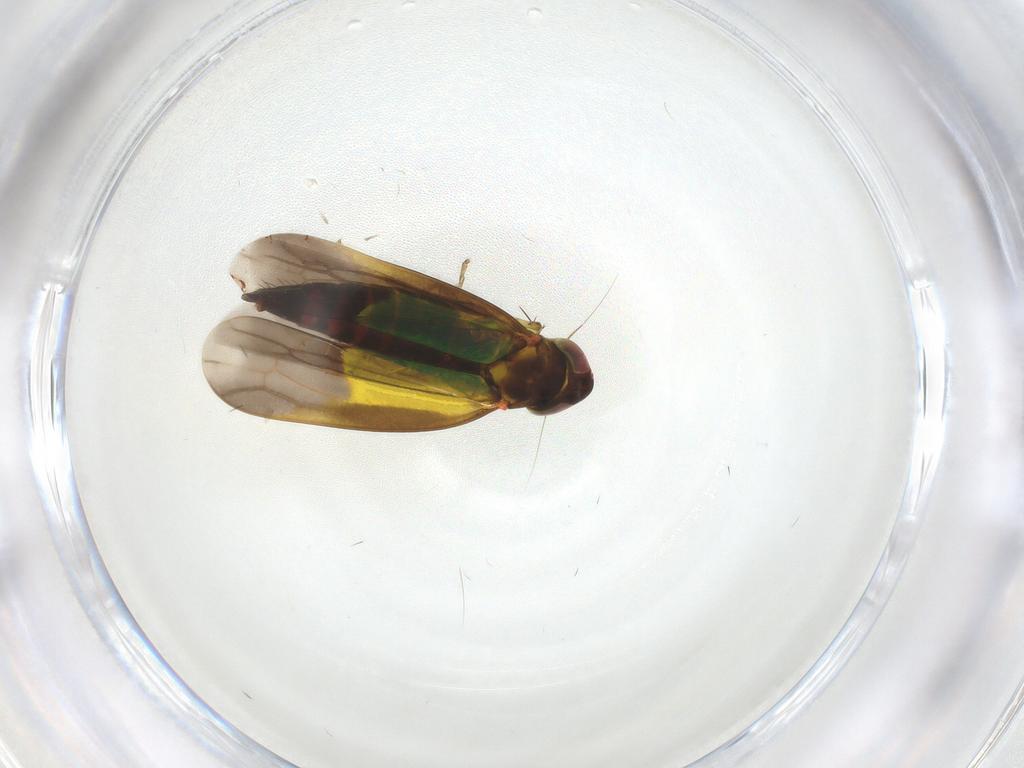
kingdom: Animalia
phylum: Arthropoda
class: Insecta
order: Hemiptera
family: Cicadellidae
